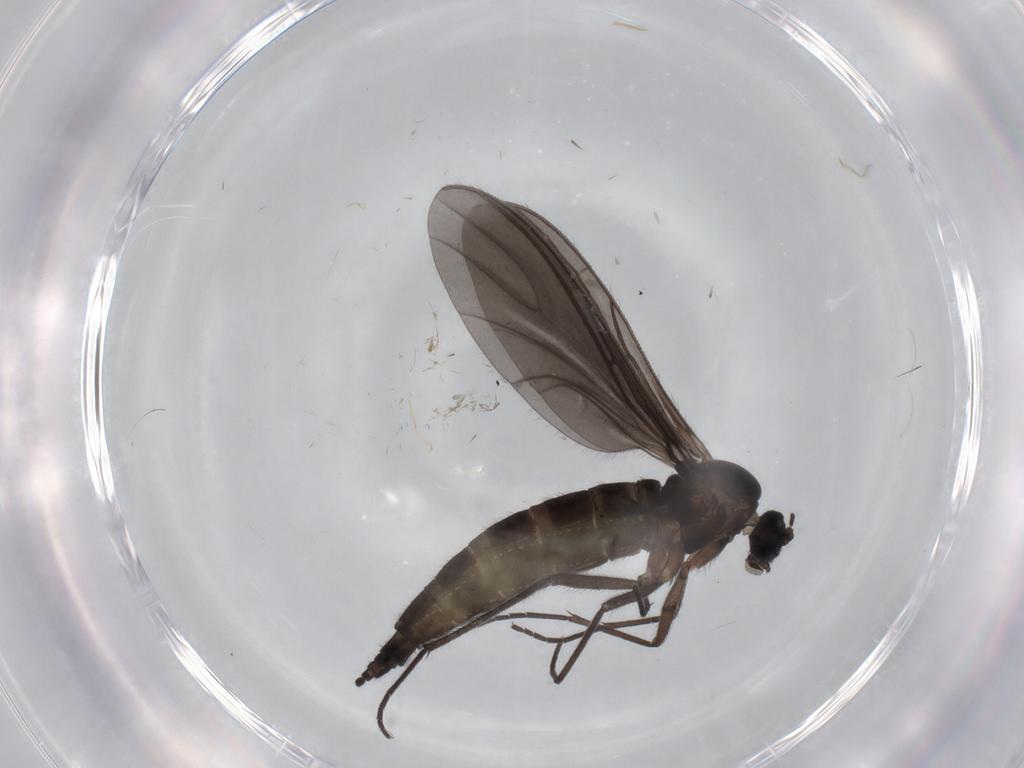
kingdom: Animalia
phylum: Arthropoda
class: Insecta
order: Diptera
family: Sciaridae
